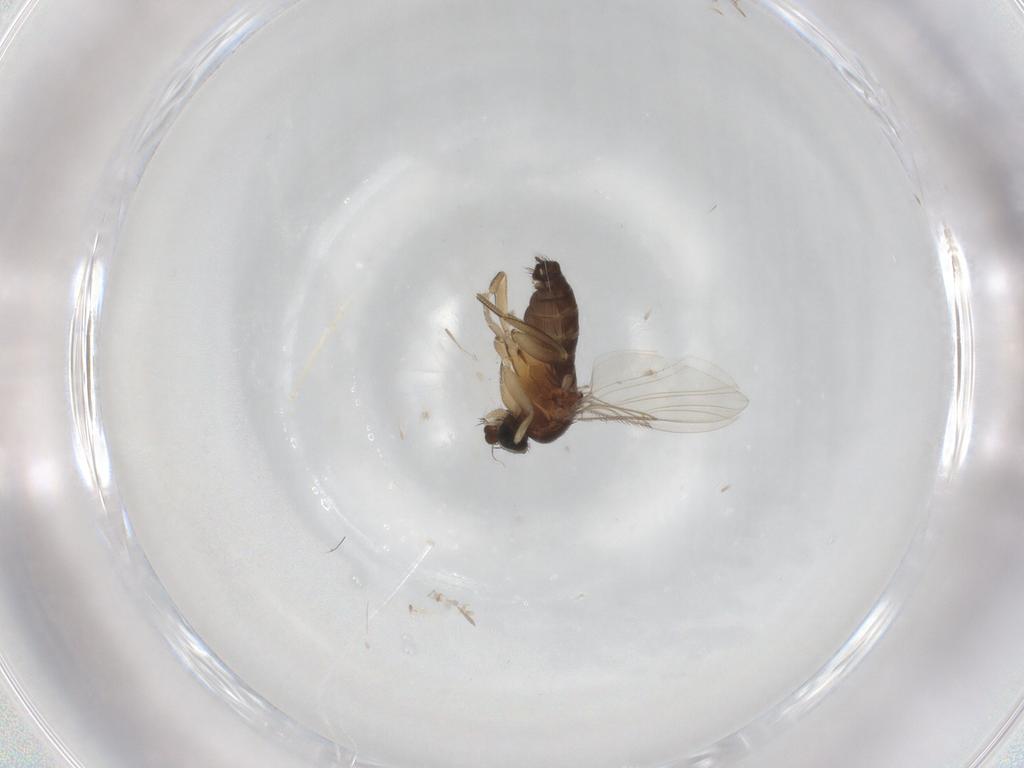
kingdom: Animalia
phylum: Arthropoda
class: Insecta
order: Diptera
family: Phoridae
